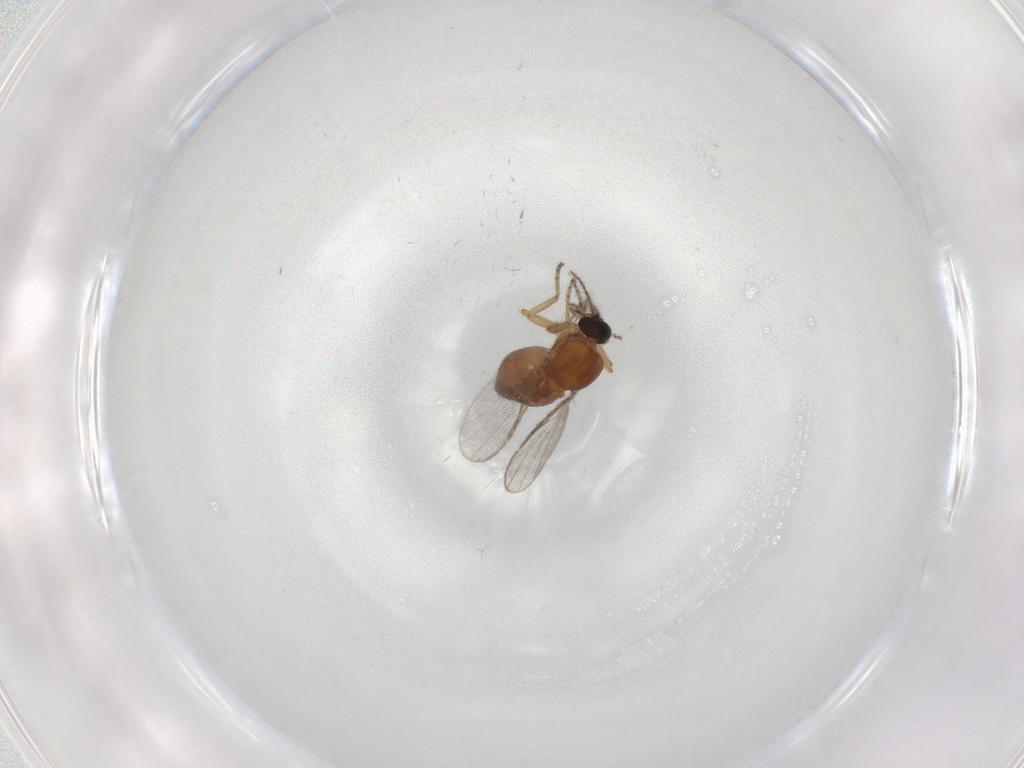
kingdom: Animalia
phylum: Arthropoda
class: Insecta
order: Diptera
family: Ceratopogonidae
